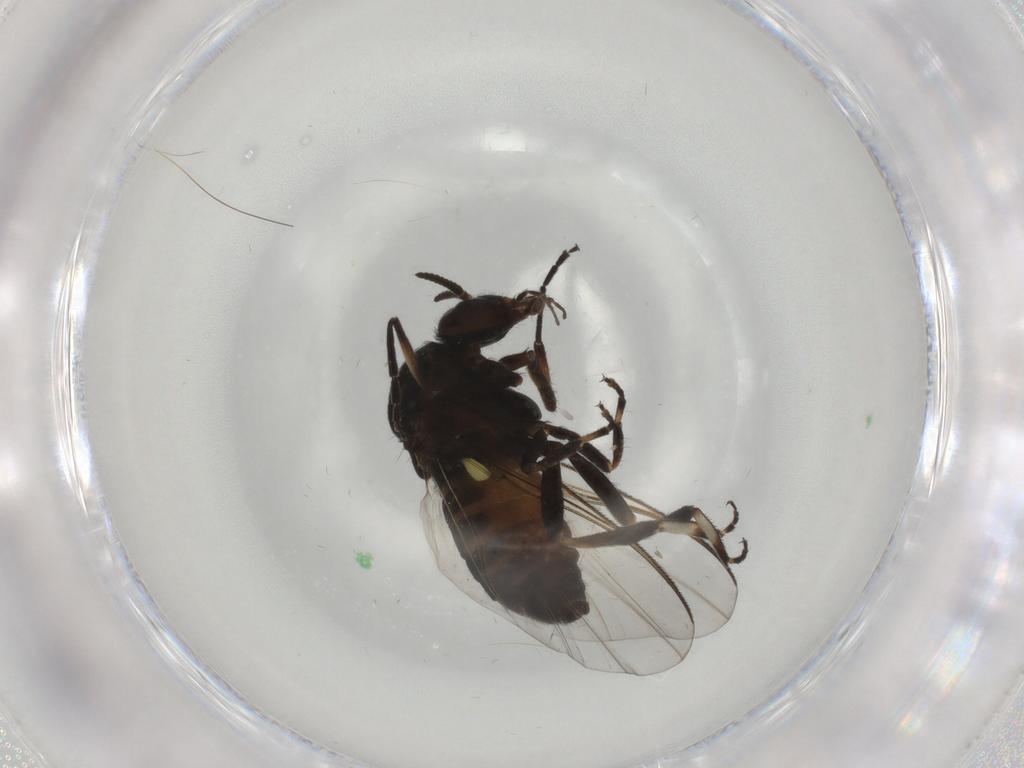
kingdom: Animalia
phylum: Arthropoda
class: Insecta
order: Diptera
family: Sciaridae
